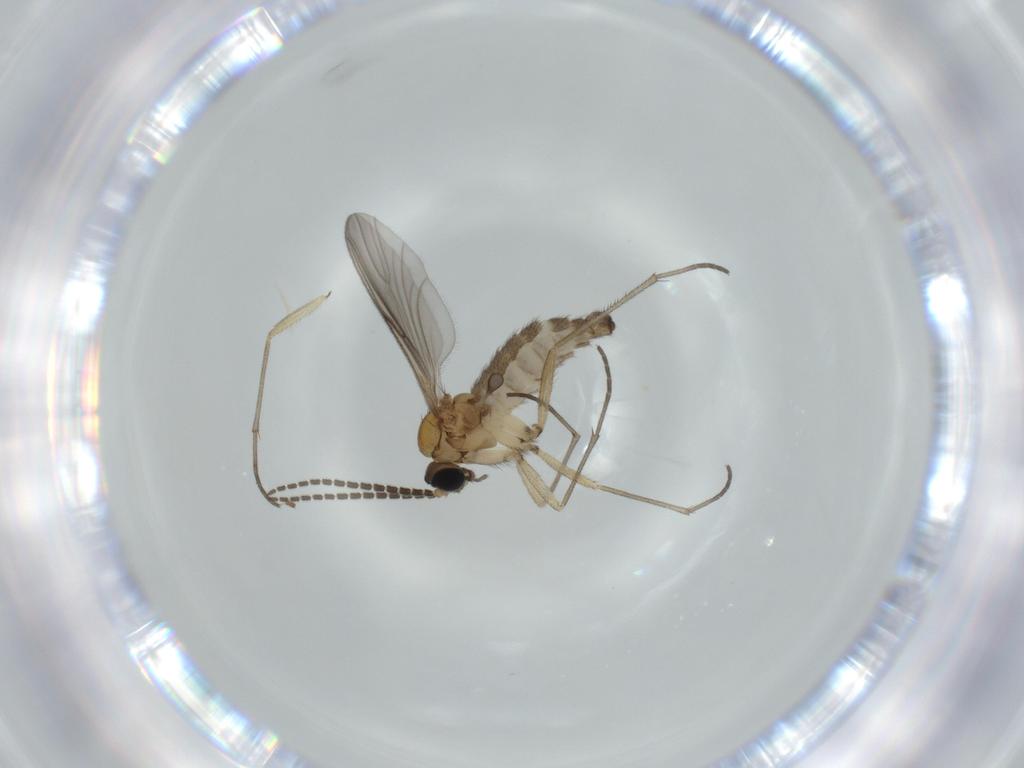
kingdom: Animalia
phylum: Arthropoda
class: Insecta
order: Diptera
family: Sciaridae
